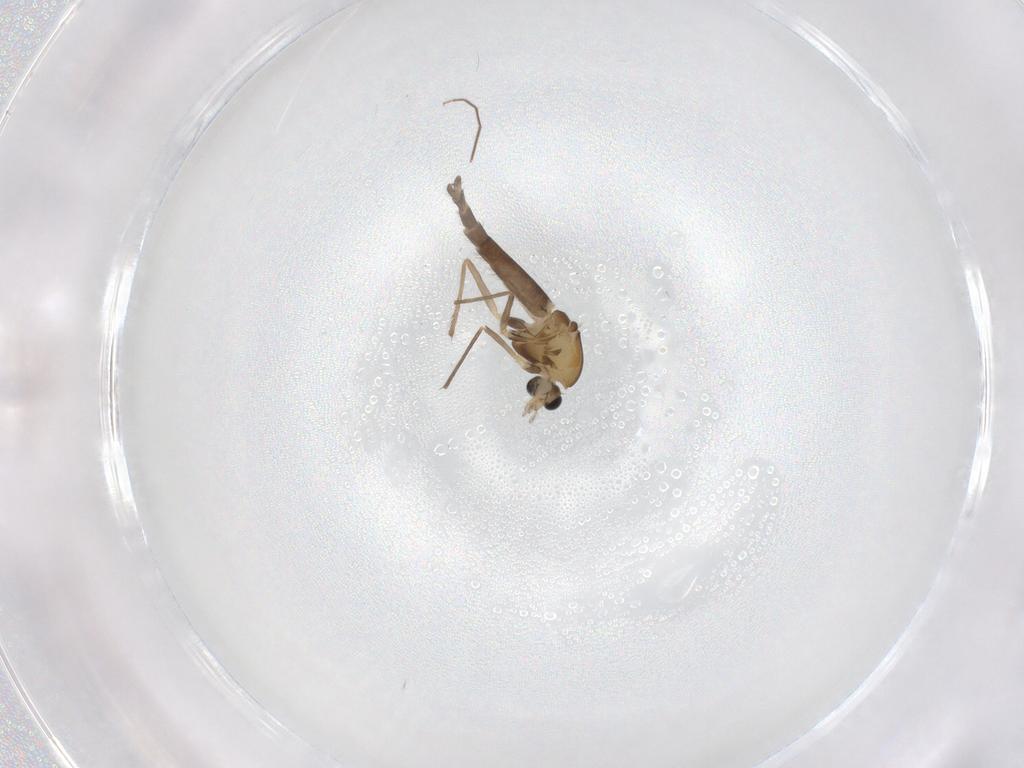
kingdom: Animalia
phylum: Arthropoda
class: Insecta
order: Diptera
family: Chironomidae
